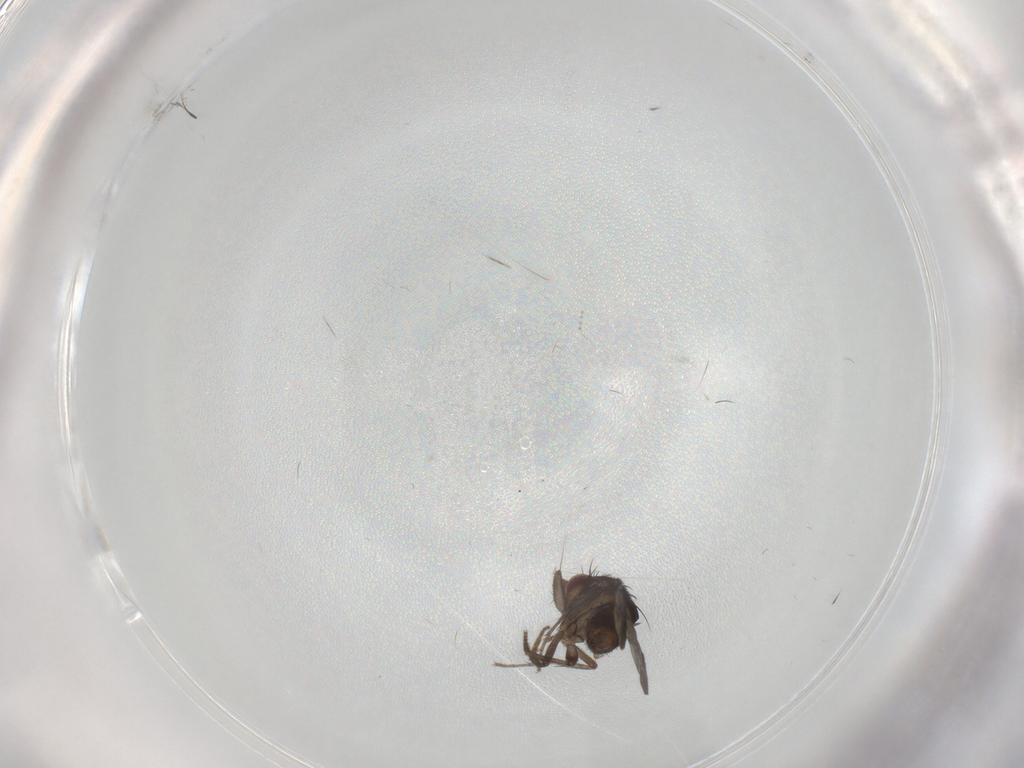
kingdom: Animalia
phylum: Arthropoda
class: Insecta
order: Diptera
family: Sphaeroceridae
